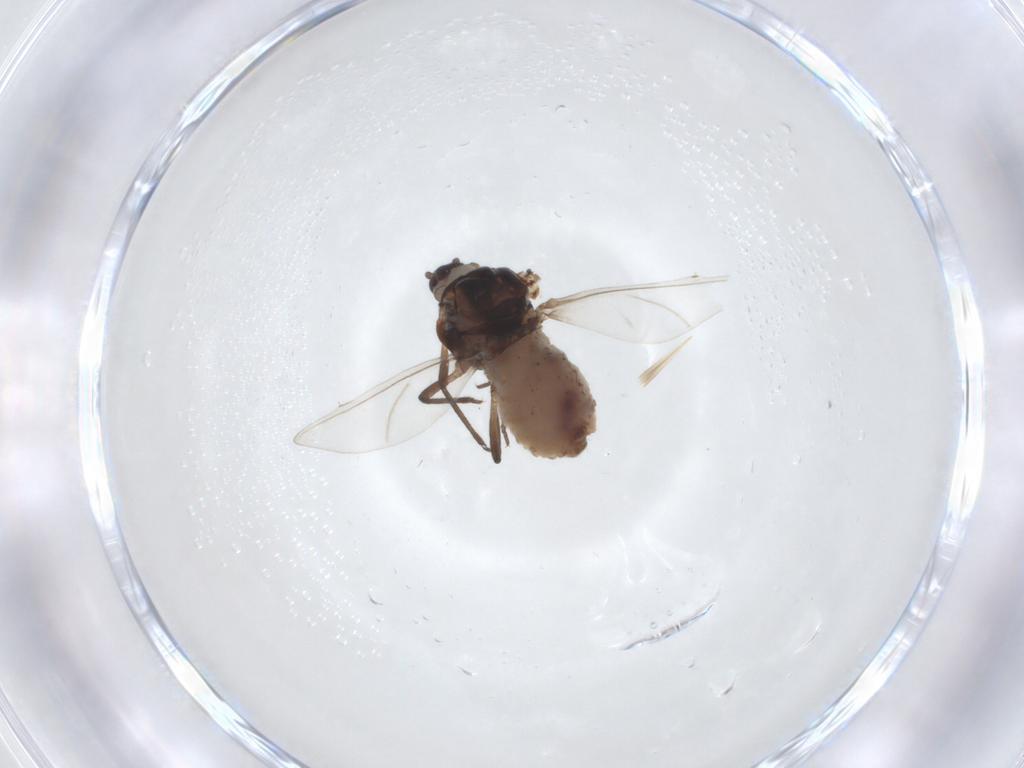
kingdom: Animalia
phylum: Arthropoda
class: Insecta
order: Hemiptera
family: Aphididae
